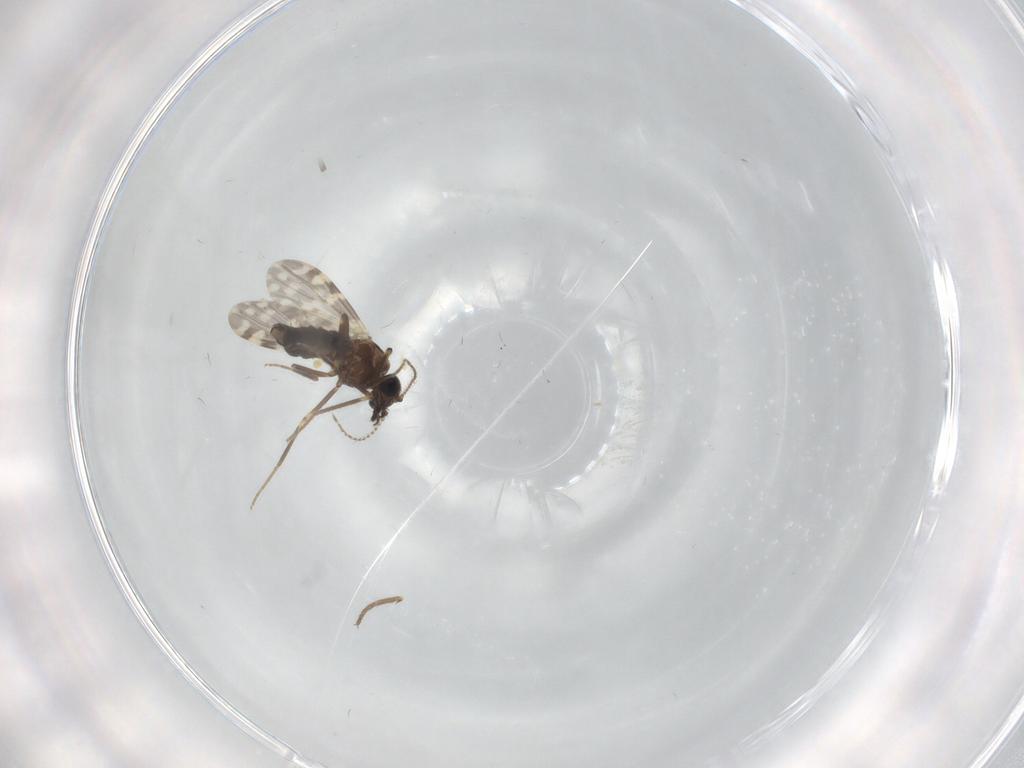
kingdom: Animalia
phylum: Arthropoda
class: Insecta
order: Diptera
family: Ceratopogonidae
